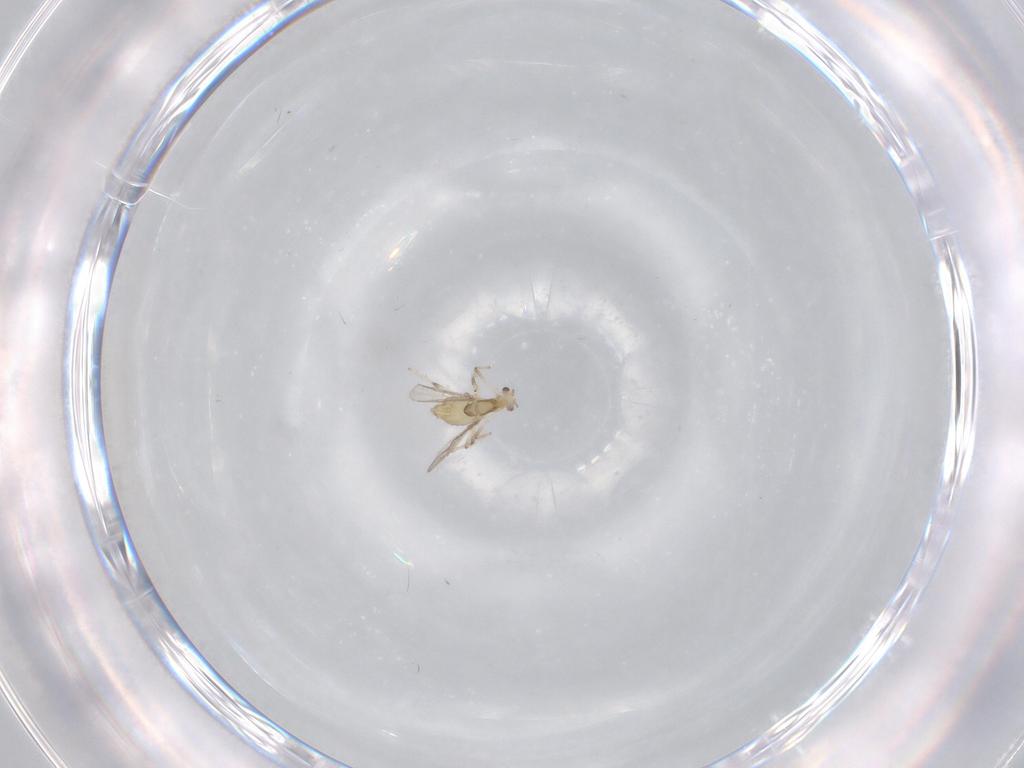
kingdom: Animalia
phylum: Arthropoda
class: Insecta
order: Diptera
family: Chironomidae
